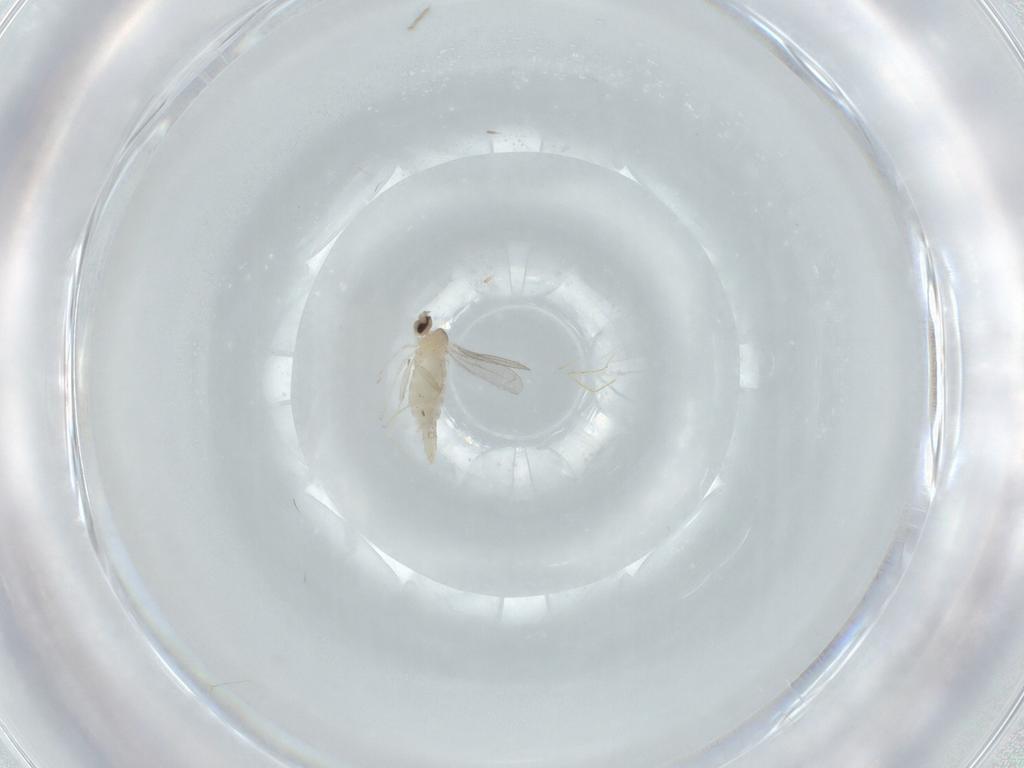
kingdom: Animalia
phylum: Arthropoda
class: Insecta
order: Diptera
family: Cecidomyiidae
